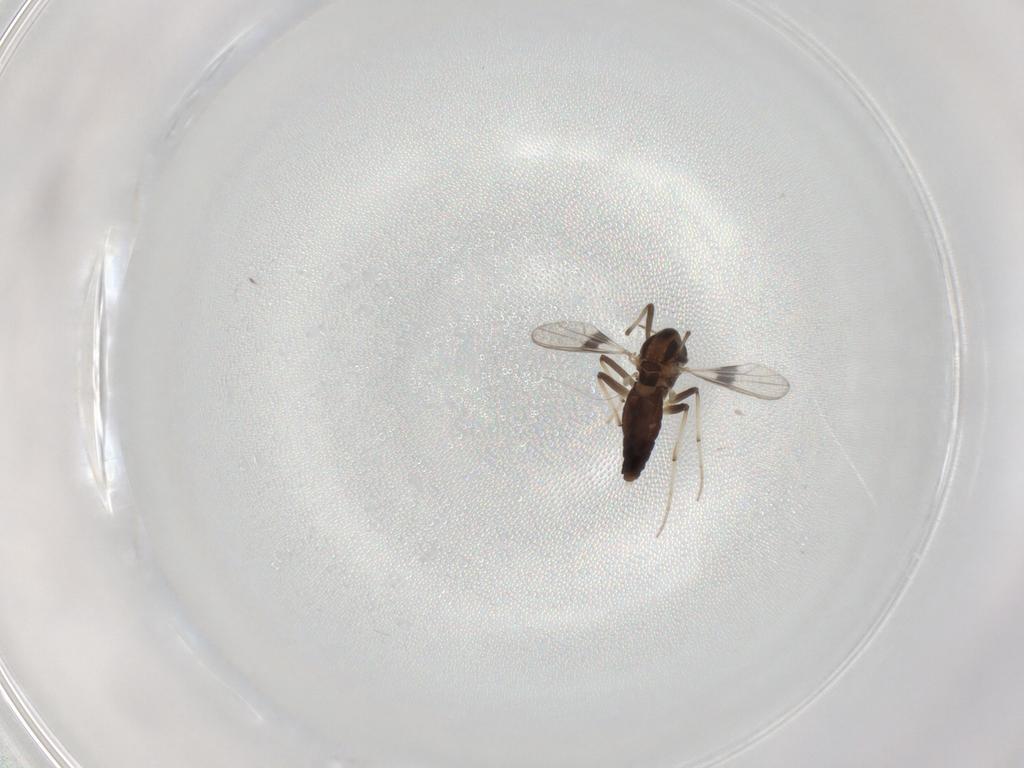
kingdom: Animalia
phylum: Arthropoda
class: Insecta
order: Diptera
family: Chironomidae
